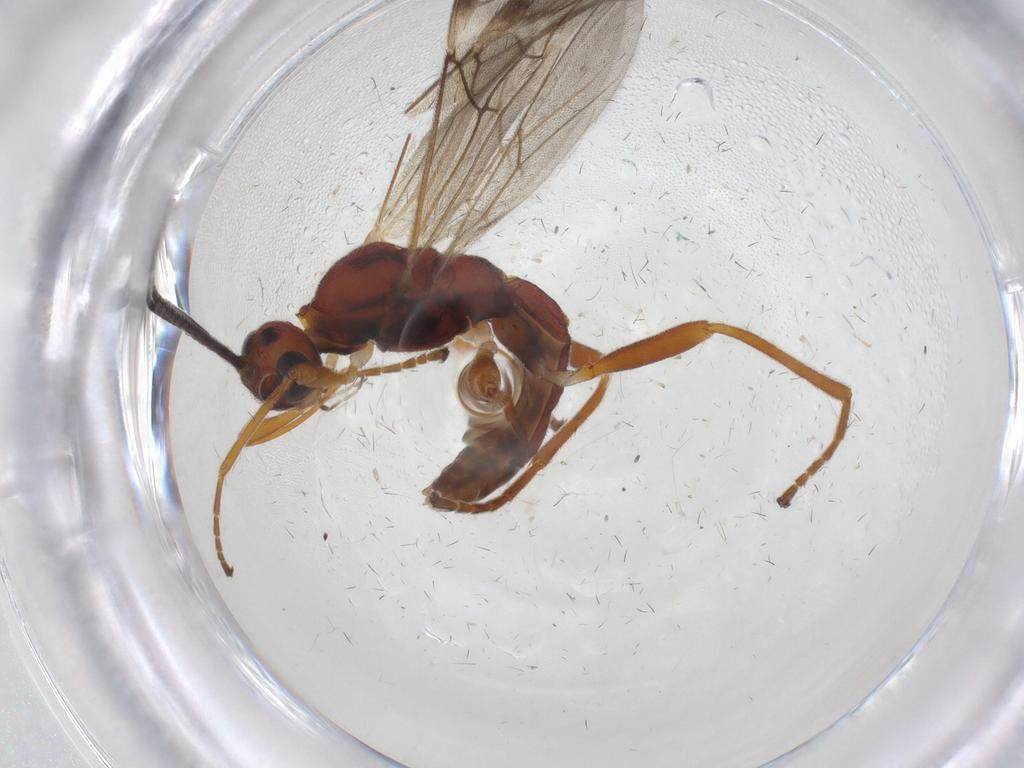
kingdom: Animalia
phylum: Arthropoda
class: Insecta
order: Hymenoptera
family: Braconidae
